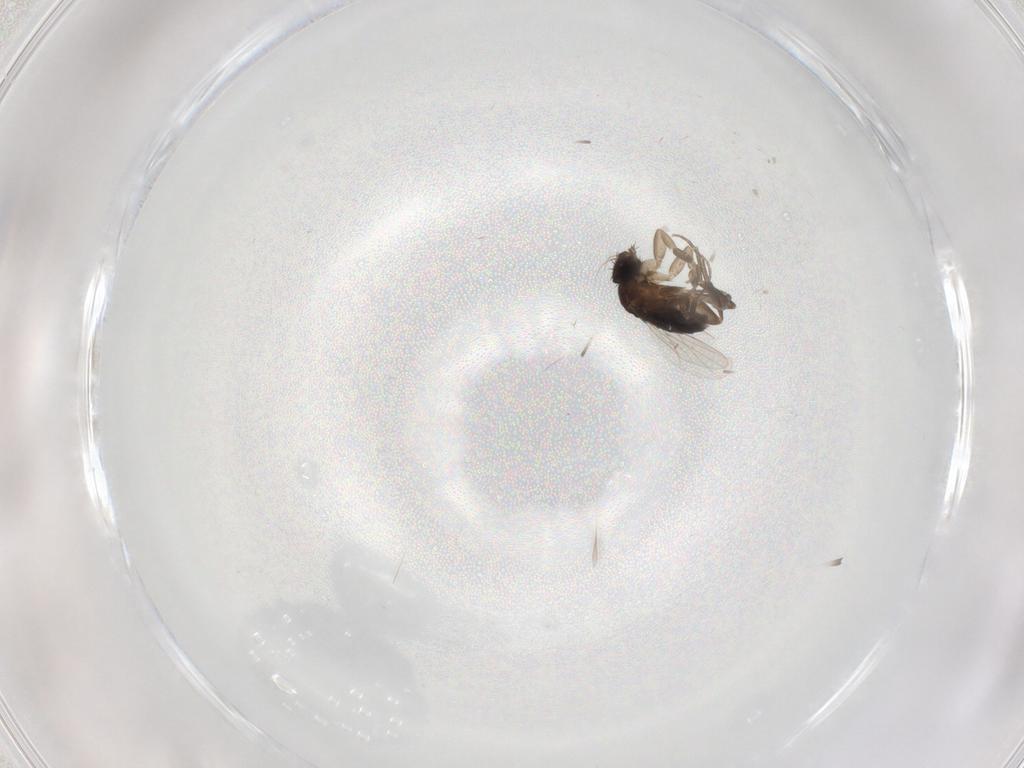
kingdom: Animalia
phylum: Arthropoda
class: Insecta
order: Diptera
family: Phoridae
